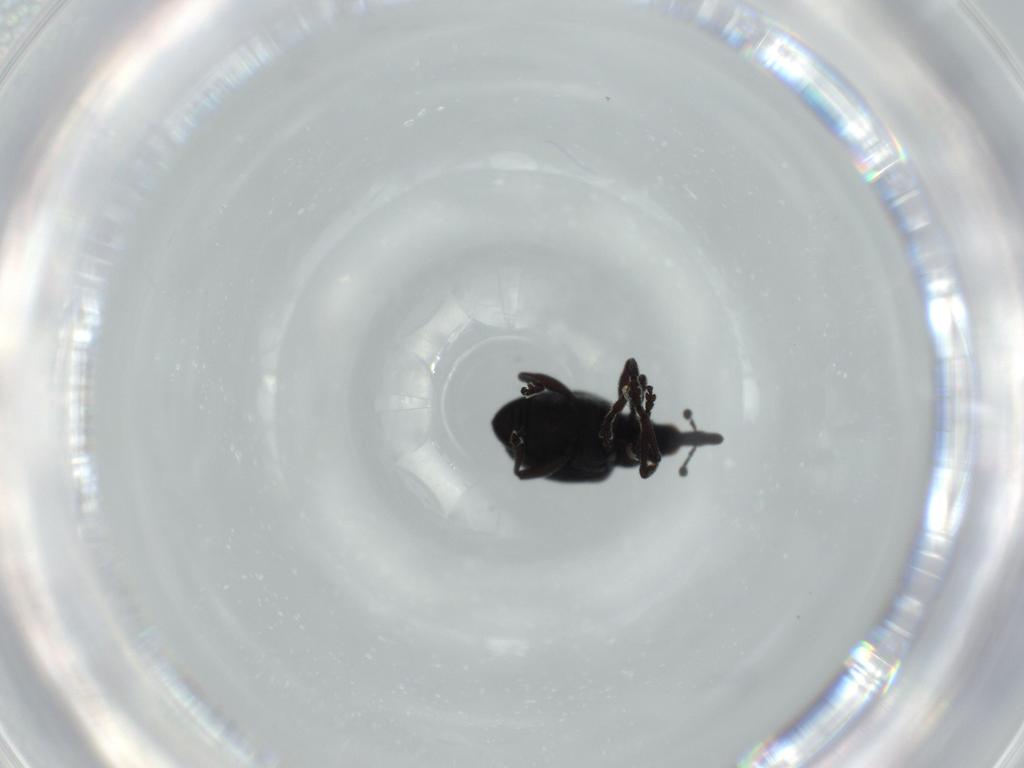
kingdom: Animalia
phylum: Arthropoda
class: Insecta
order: Coleoptera
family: Brentidae
